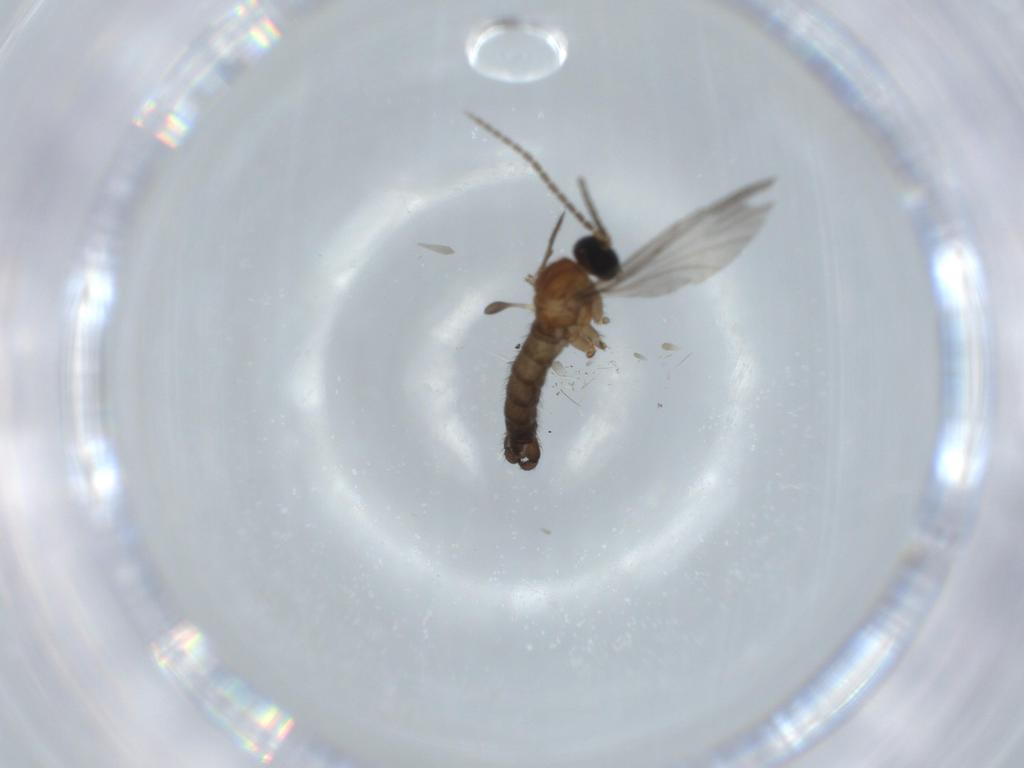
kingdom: Animalia
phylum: Arthropoda
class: Insecta
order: Diptera
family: Sciaridae
